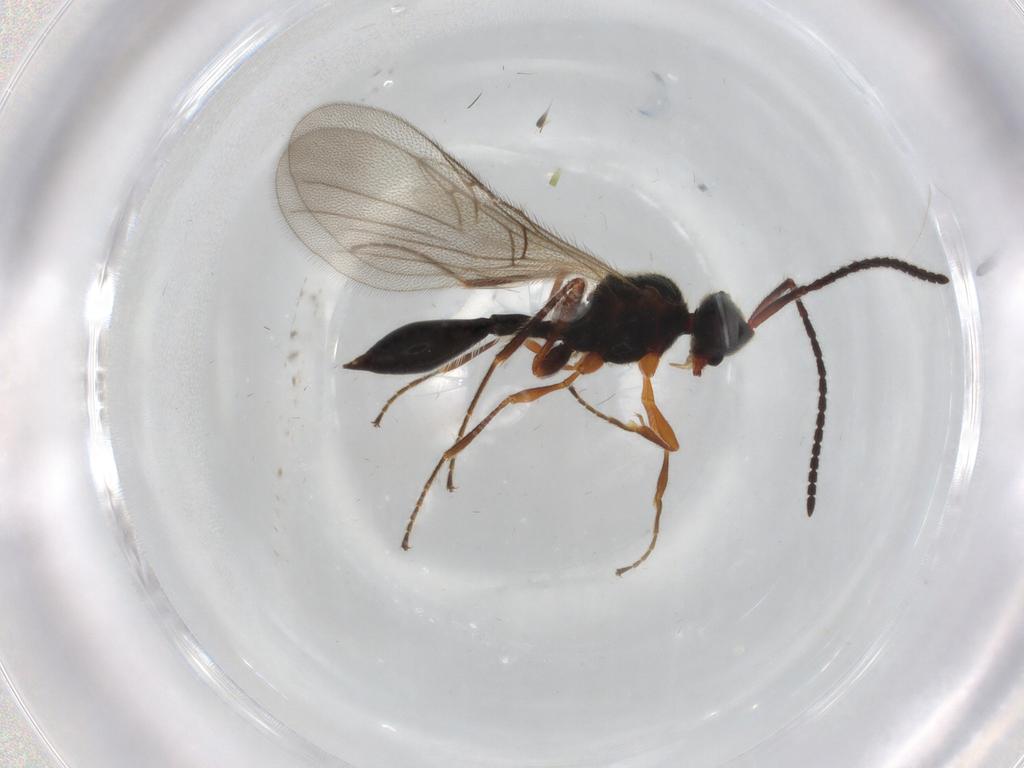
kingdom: Animalia
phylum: Arthropoda
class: Insecta
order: Hymenoptera
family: Diapriidae
